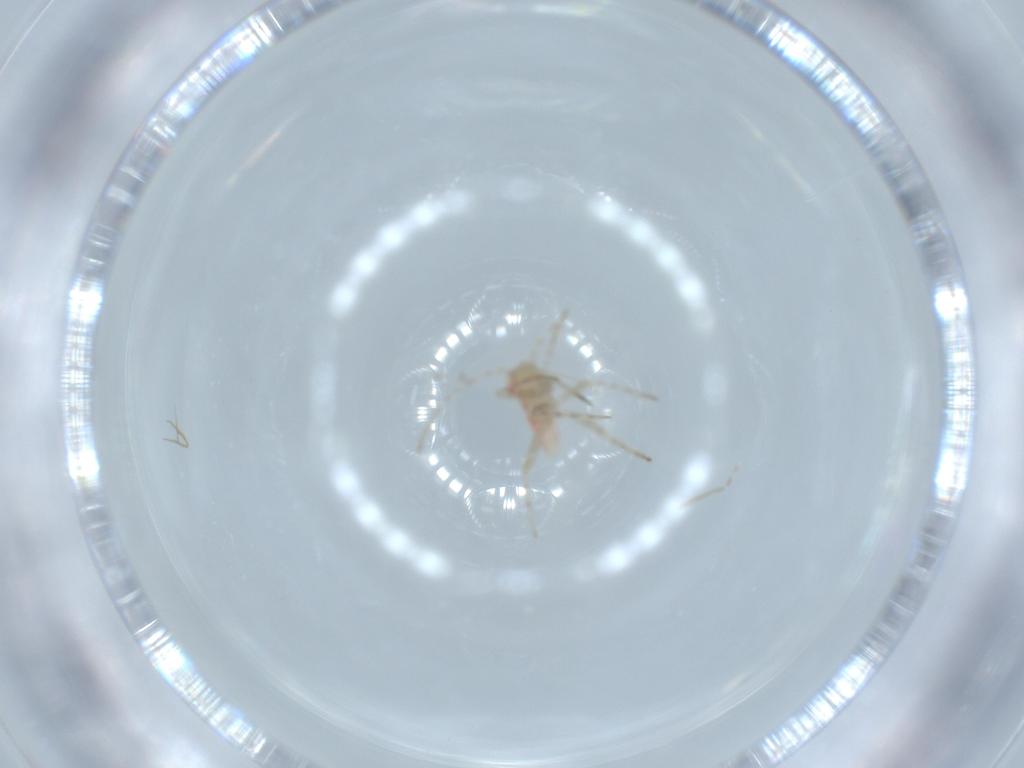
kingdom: Animalia
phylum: Arthropoda
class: Insecta
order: Hemiptera
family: Miridae
